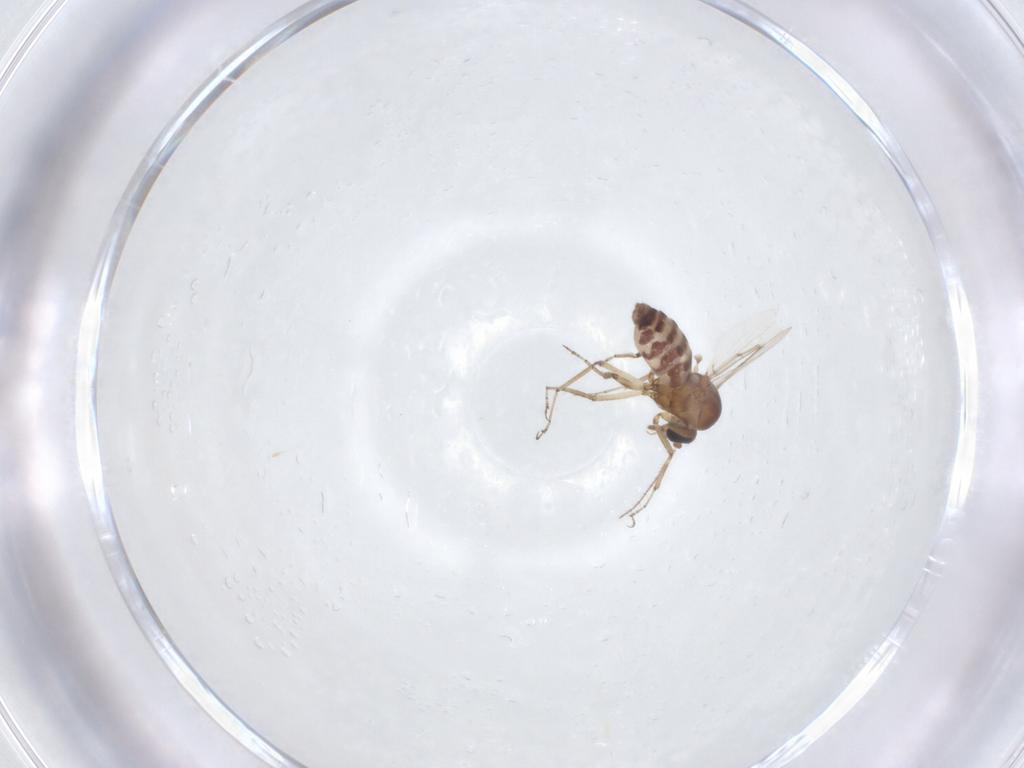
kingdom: Animalia
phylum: Arthropoda
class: Insecta
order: Diptera
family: Ceratopogonidae
